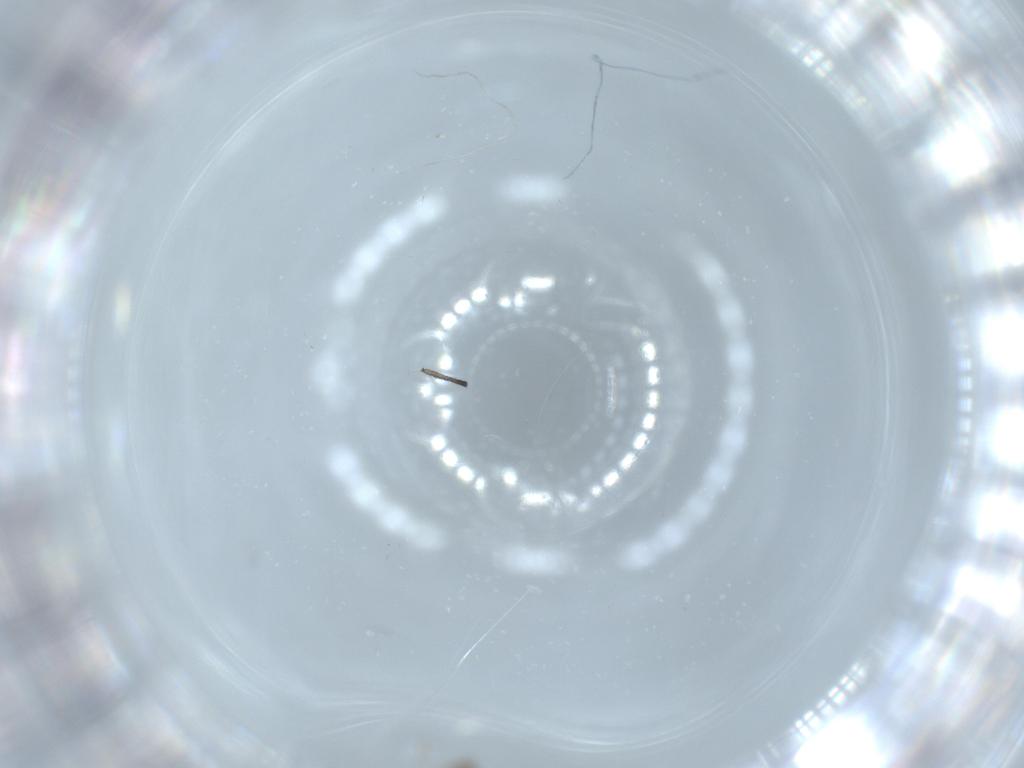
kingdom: Animalia
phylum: Arthropoda
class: Insecta
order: Diptera
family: Cecidomyiidae
